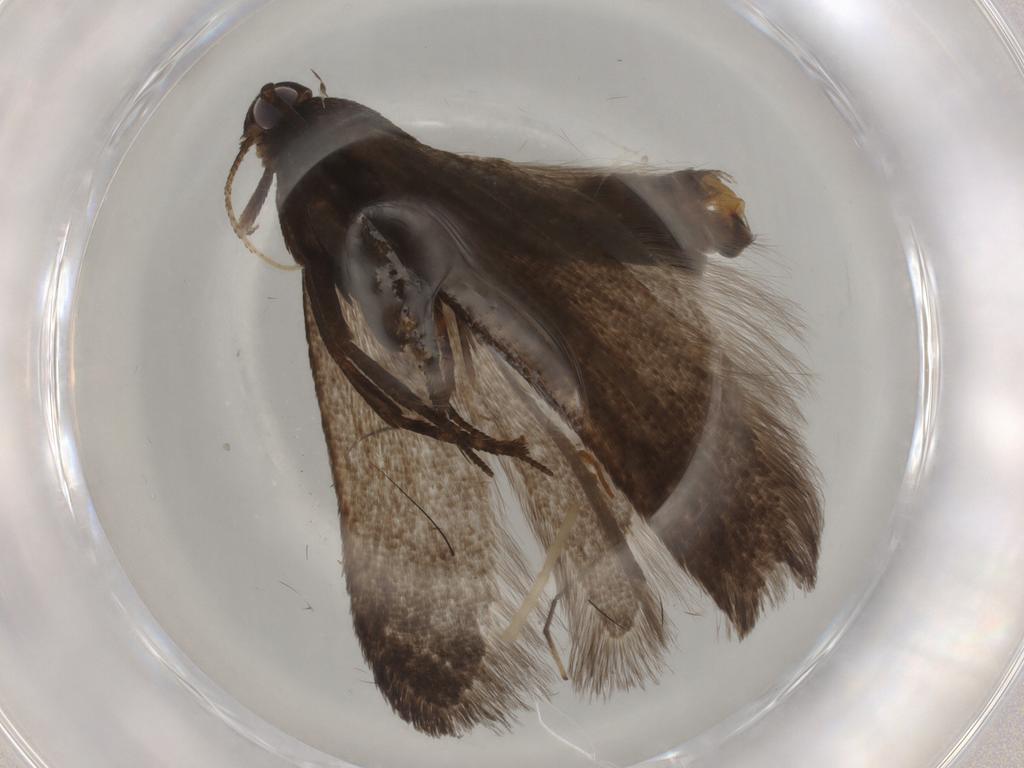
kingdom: Animalia
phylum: Arthropoda
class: Insecta
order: Lepidoptera
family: Gelechiidae
